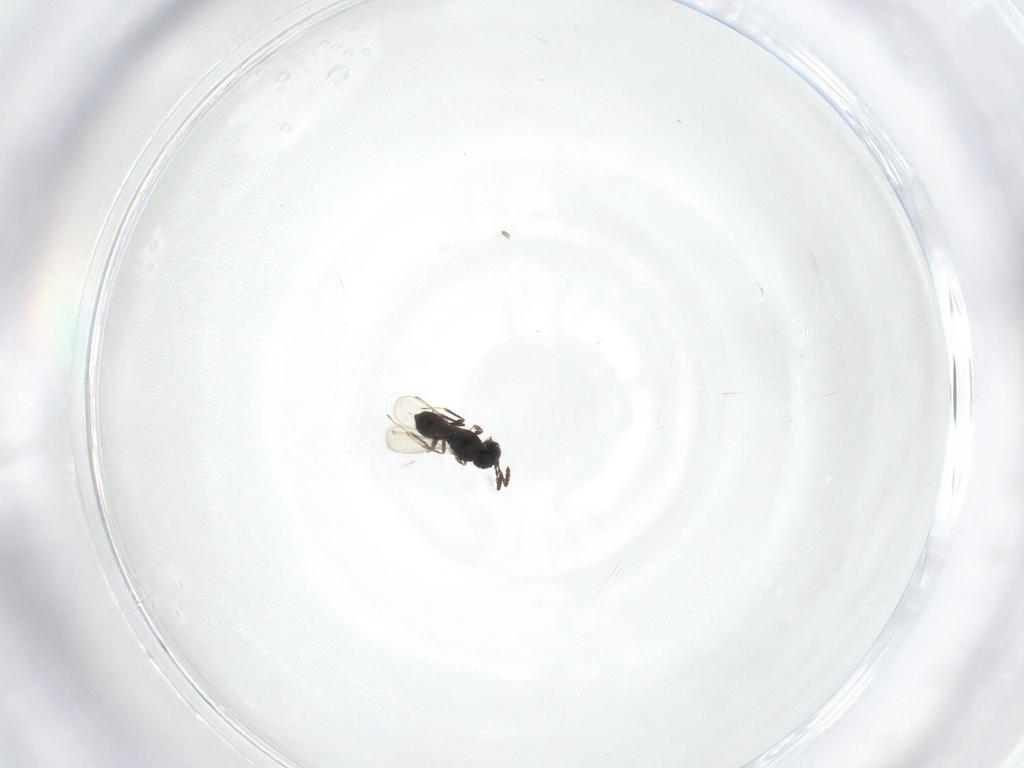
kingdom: Animalia
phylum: Arthropoda
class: Insecta
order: Hymenoptera
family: Scelionidae
